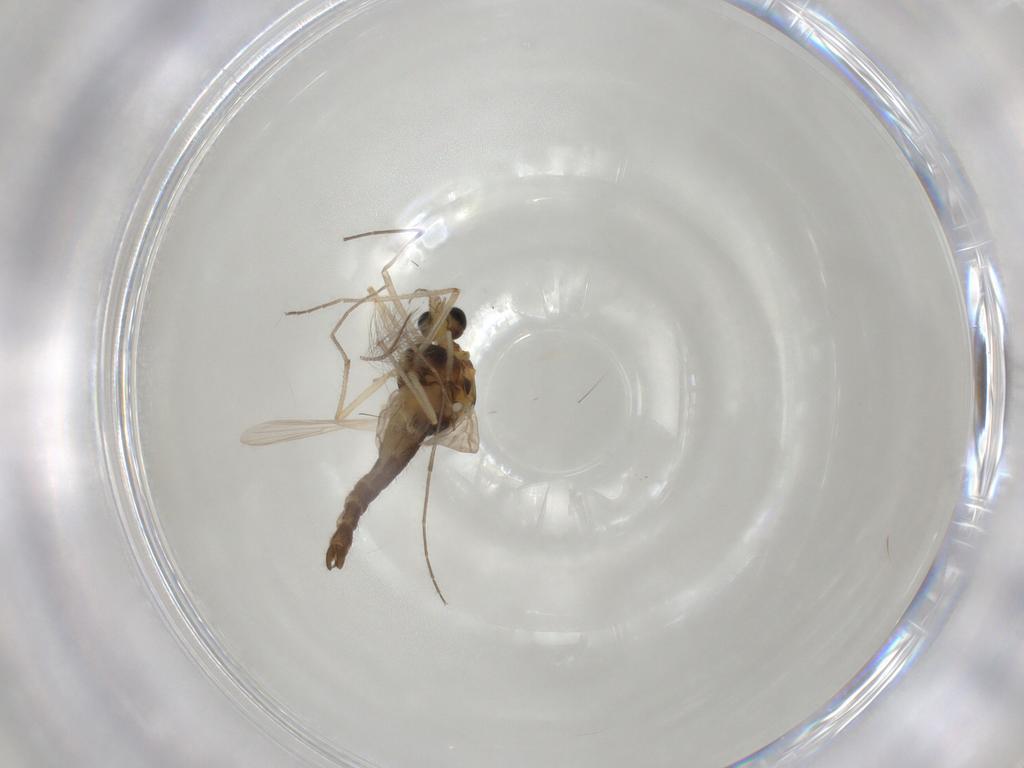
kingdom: Animalia
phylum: Arthropoda
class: Insecta
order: Diptera
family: Chironomidae
